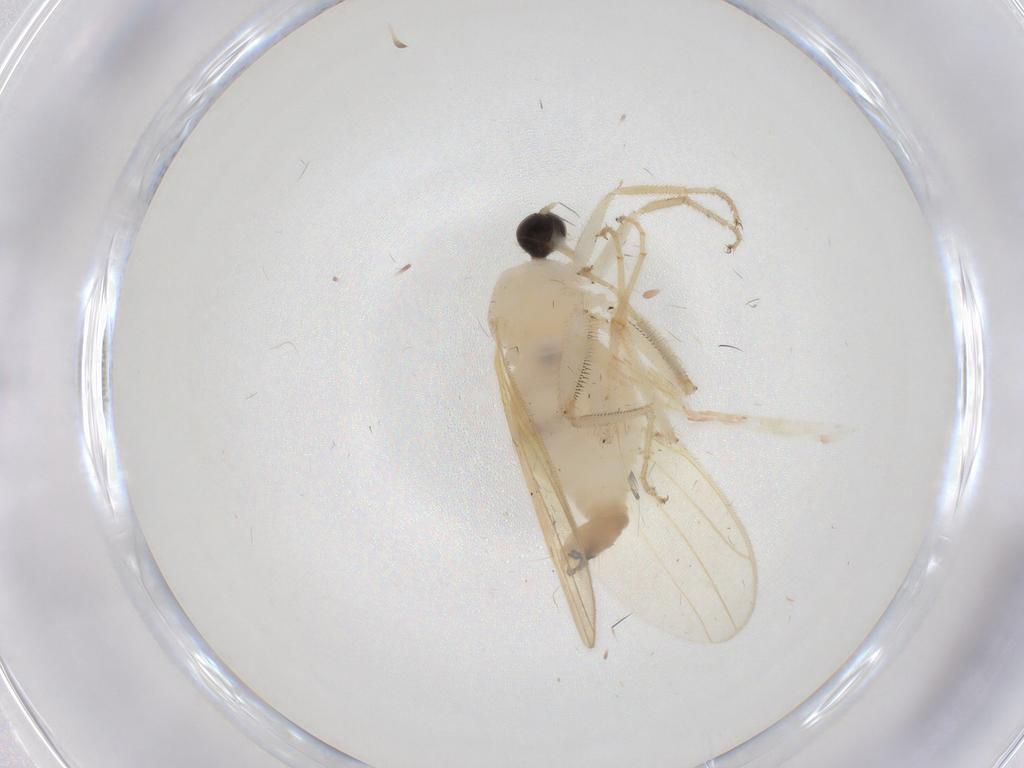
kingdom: Animalia
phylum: Arthropoda
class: Insecta
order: Diptera
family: Hybotidae
